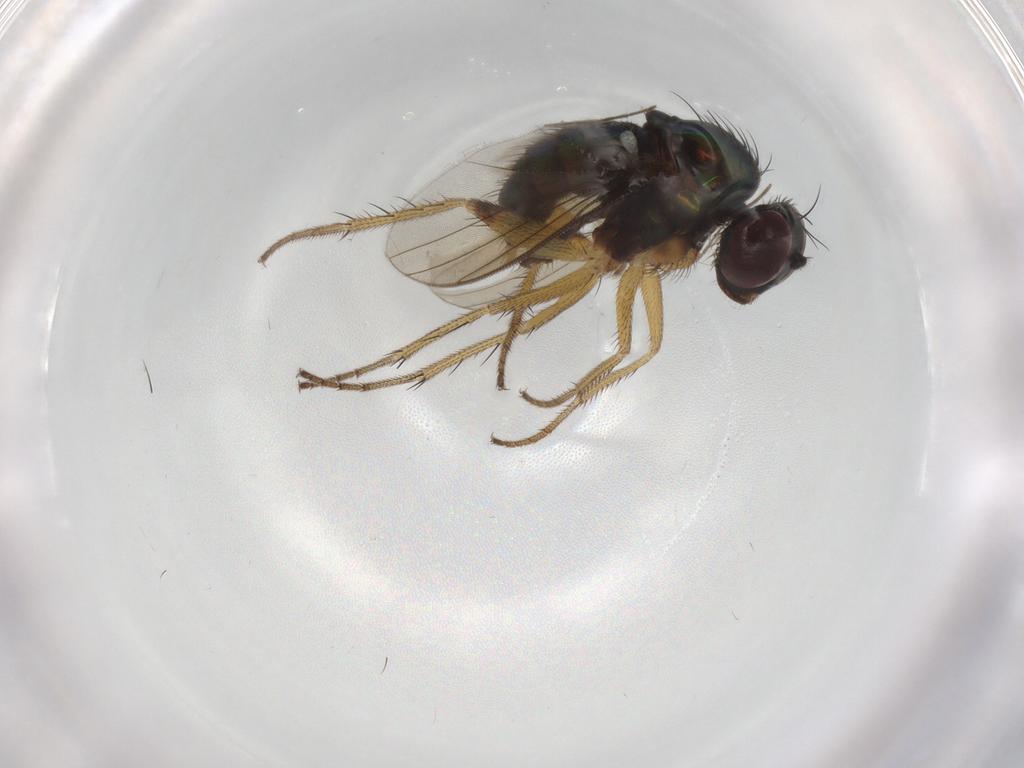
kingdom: Animalia
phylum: Arthropoda
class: Insecta
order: Diptera
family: Dolichopodidae
